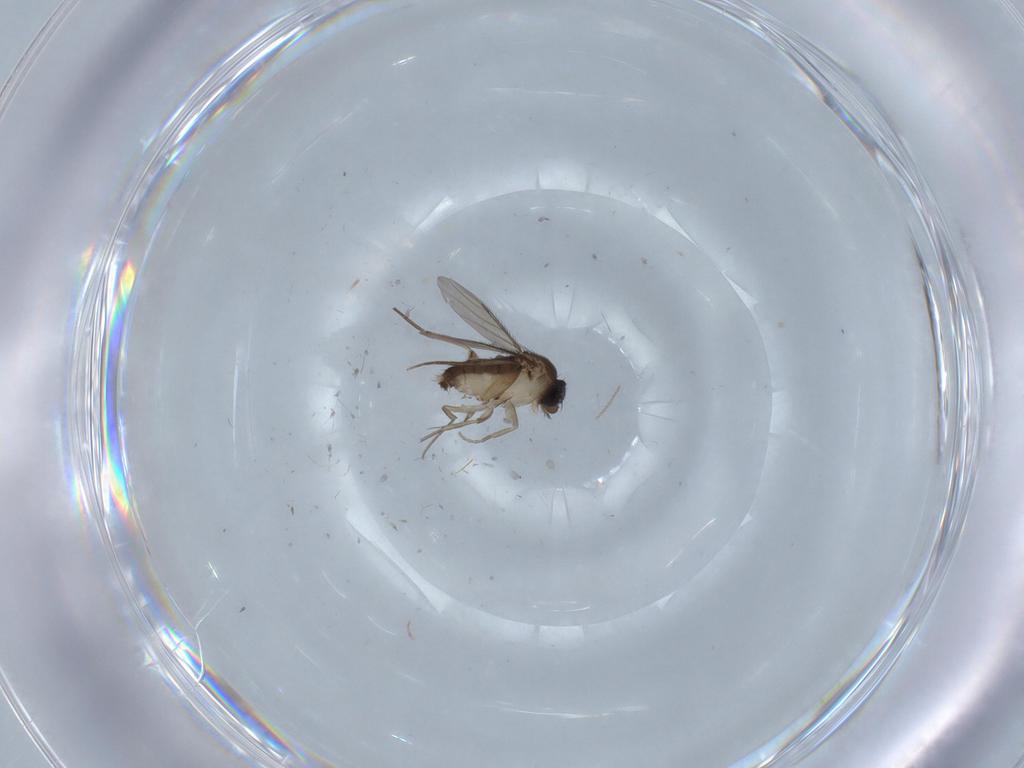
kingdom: Animalia
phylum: Arthropoda
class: Insecta
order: Diptera
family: Phoridae
